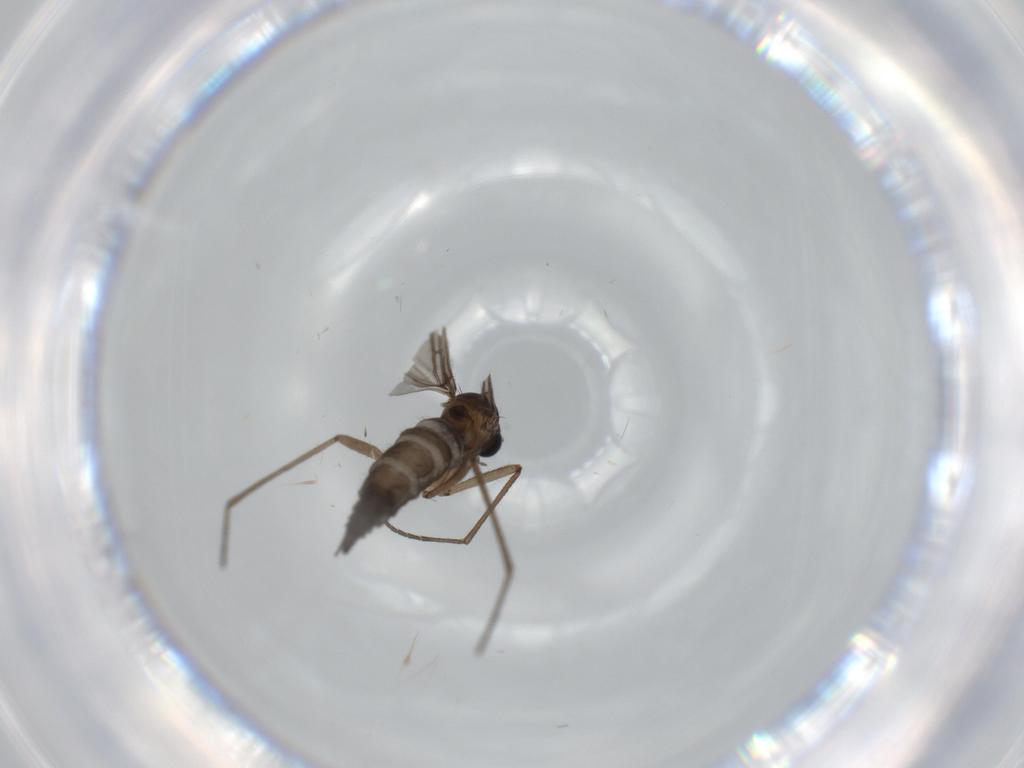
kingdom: Animalia
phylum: Arthropoda
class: Insecta
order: Diptera
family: Sciaridae
